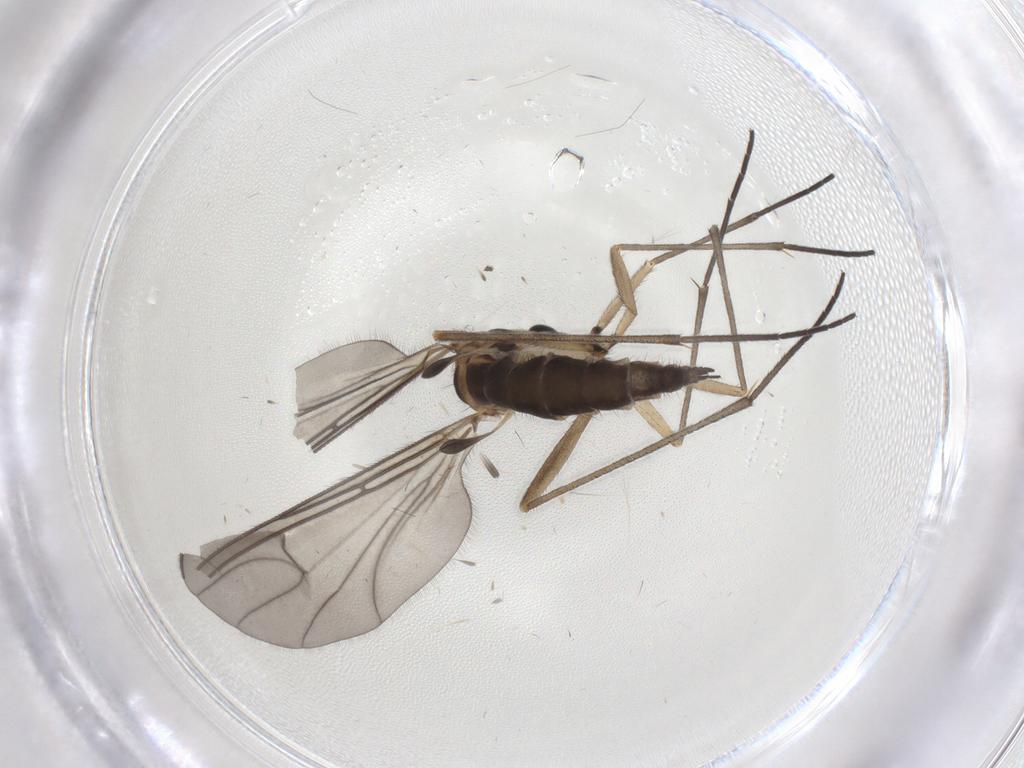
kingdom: Animalia
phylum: Arthropoda
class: Insecta
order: Diptera
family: Sciaridae
